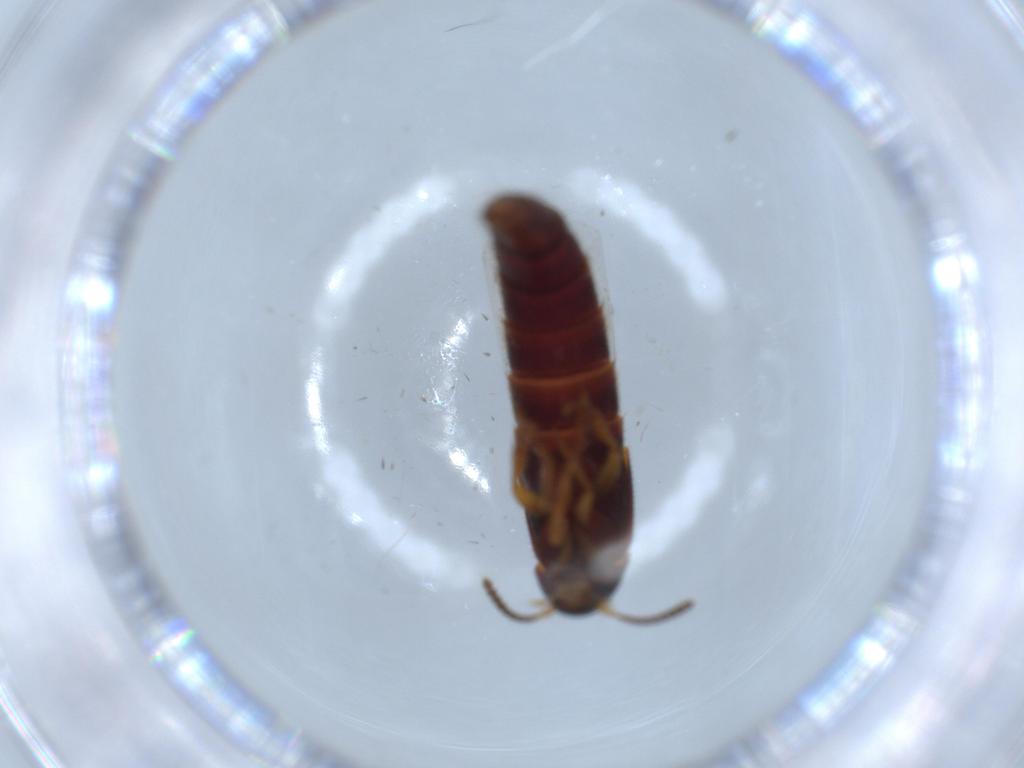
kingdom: Animalia
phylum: Arthropoda
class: Insecta
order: Coleoptera
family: Staphylinidae
